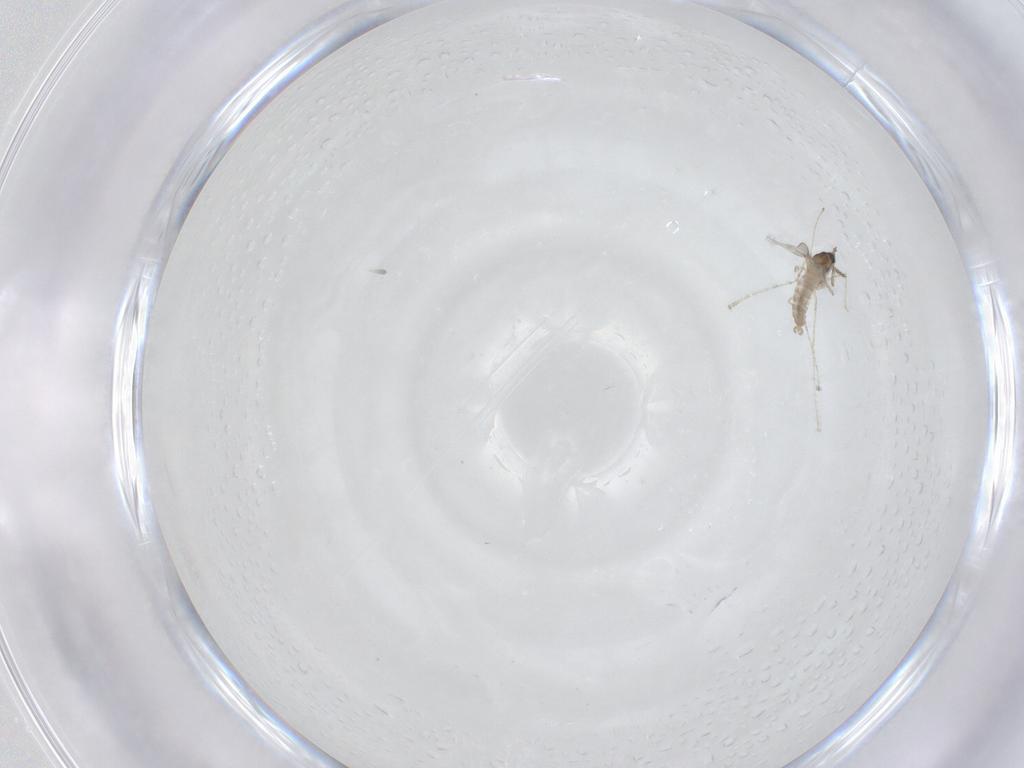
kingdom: Animalia
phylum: Arthropoda
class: Insecta
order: Diptera
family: Cecidomyiidae
